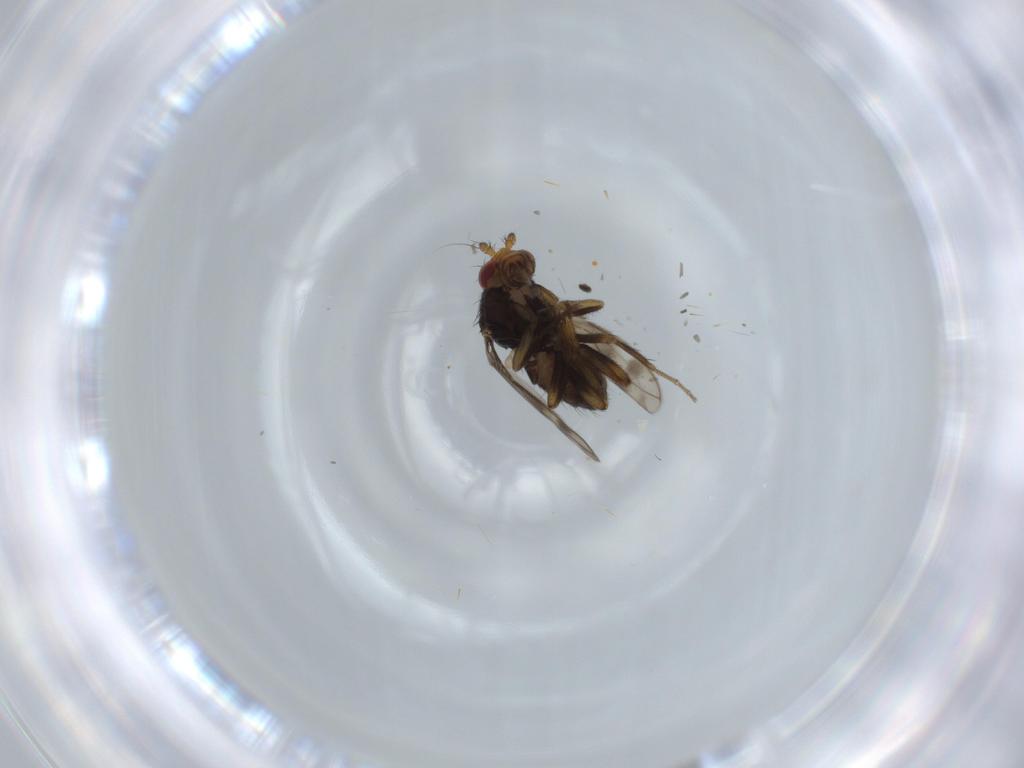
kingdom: Animalia
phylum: Arthropoda
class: Insecta
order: Diptera
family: Sphaeroceridae
